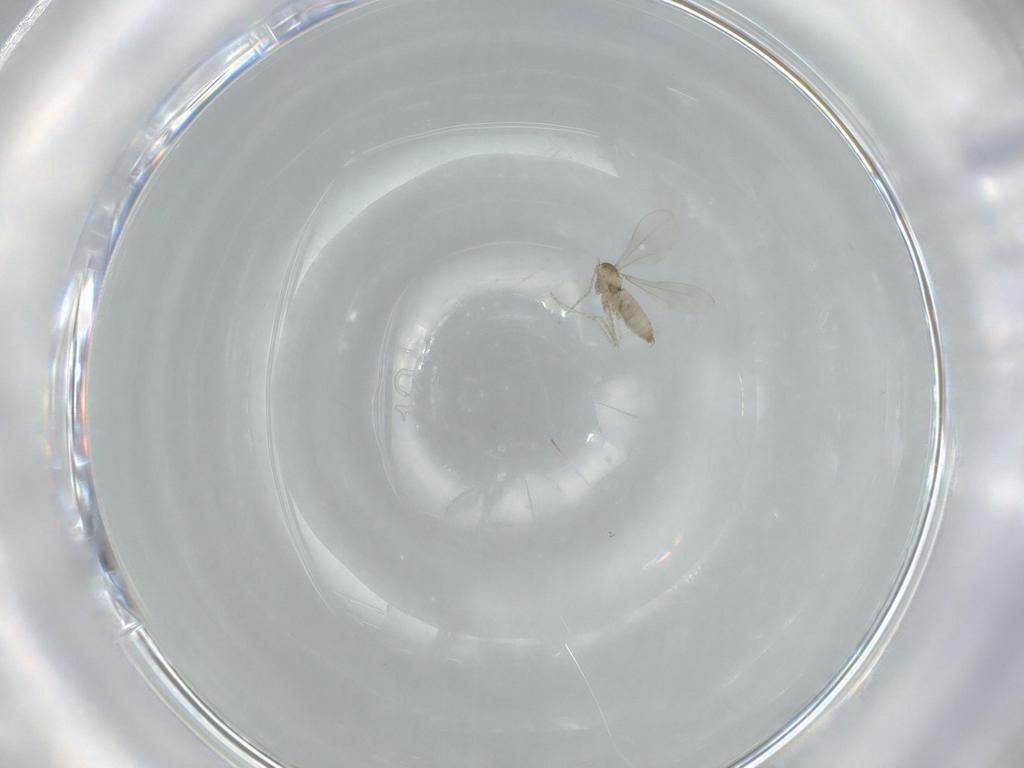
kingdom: Animalia
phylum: Arthropoda
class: Insecta
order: Diptera
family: Cecidomyiidae
